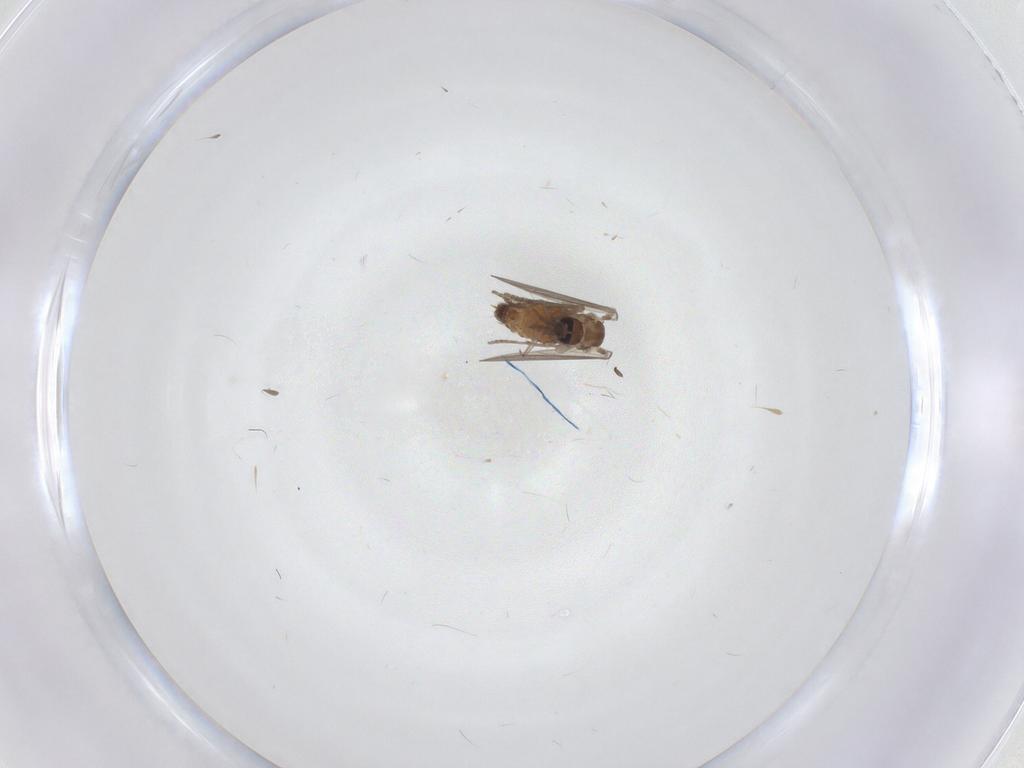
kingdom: Animalia
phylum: Arthropoda
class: Insecta
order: Diptera
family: Psychodidae
